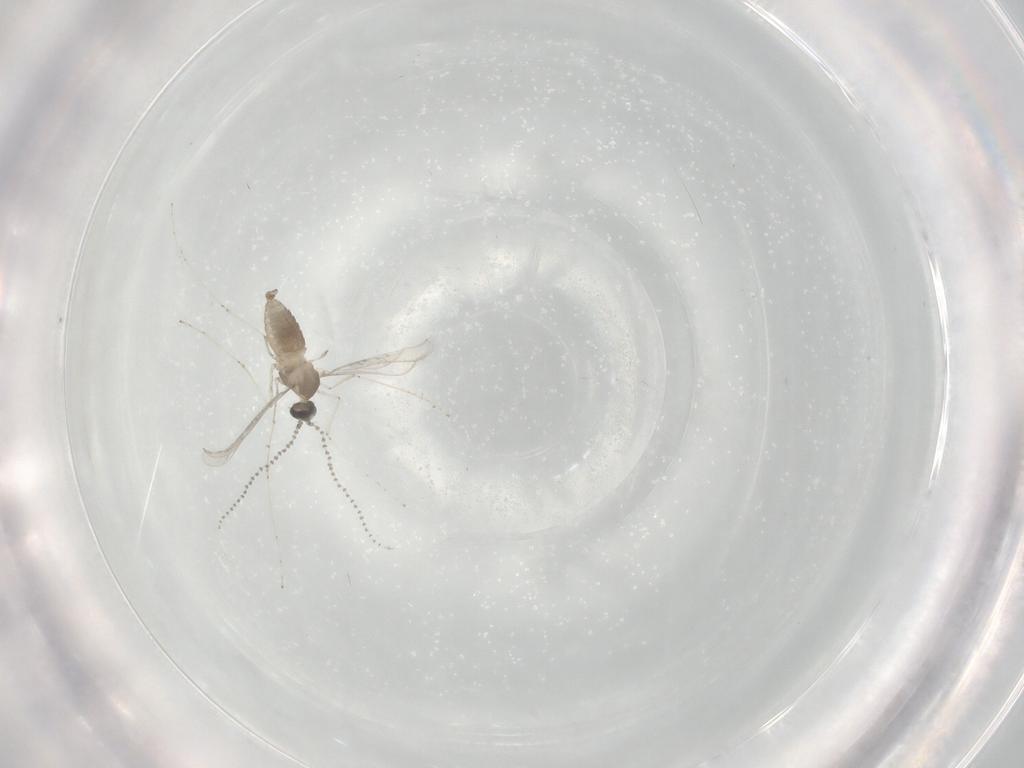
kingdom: Animalia
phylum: Arthropoda
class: Insecta
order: Diptera
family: Cecidomyiidae
